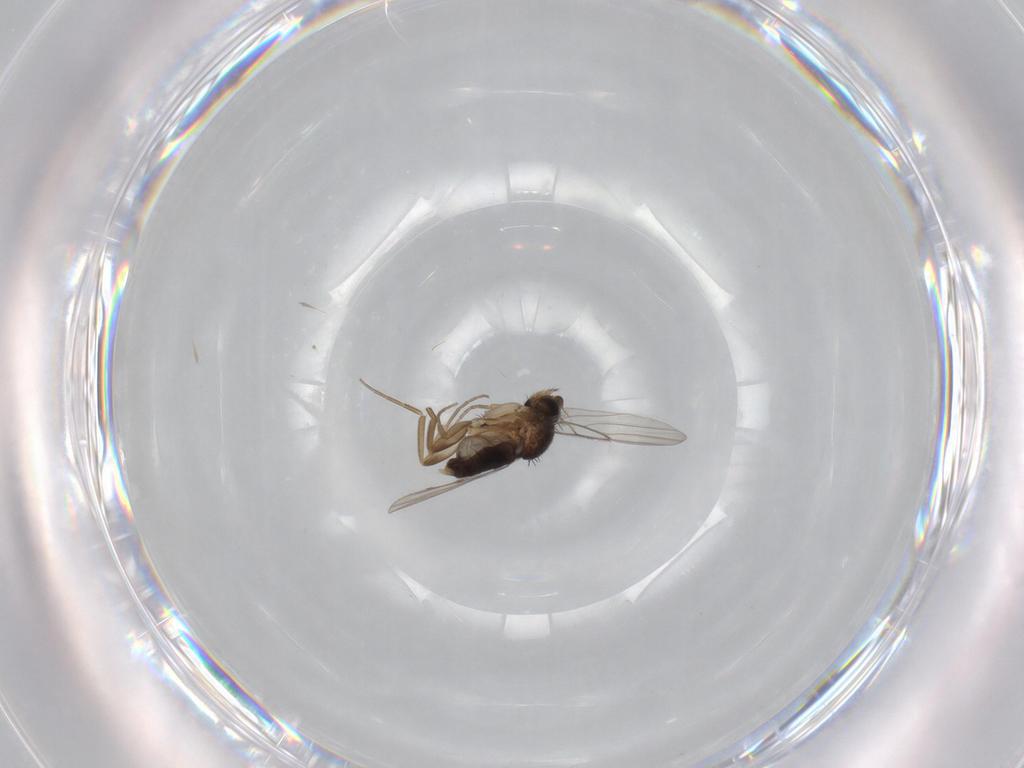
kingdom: Animalia
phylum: Arthropoda
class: Insecta
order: Diptera
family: Phoridae
